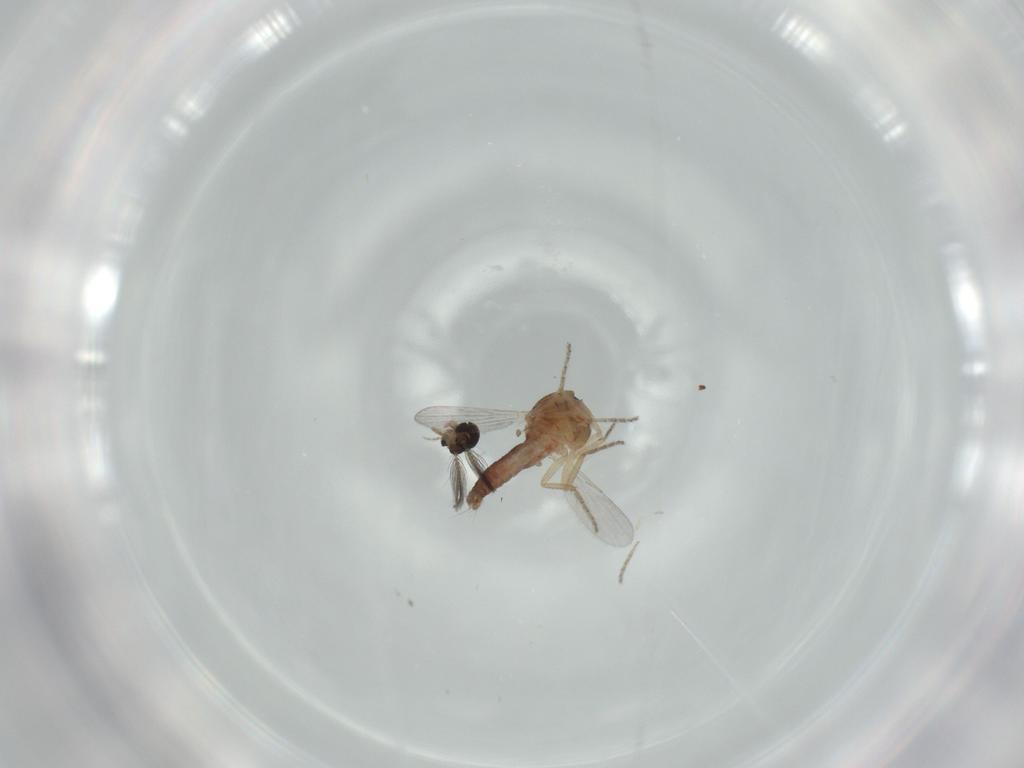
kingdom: Animalia
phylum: Arthropoda
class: Insecta
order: Diptera
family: Ceratopogonidae
